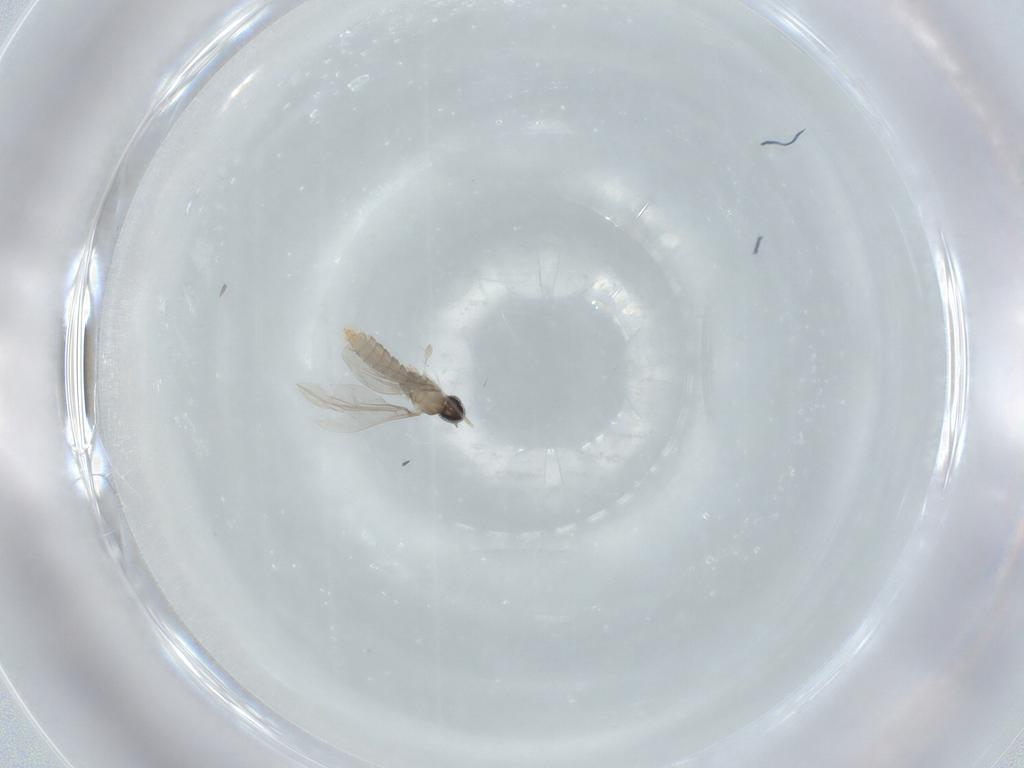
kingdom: Animalia
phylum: Arthropoda
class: Insecta
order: Diptera
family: Cecidomyiidae
